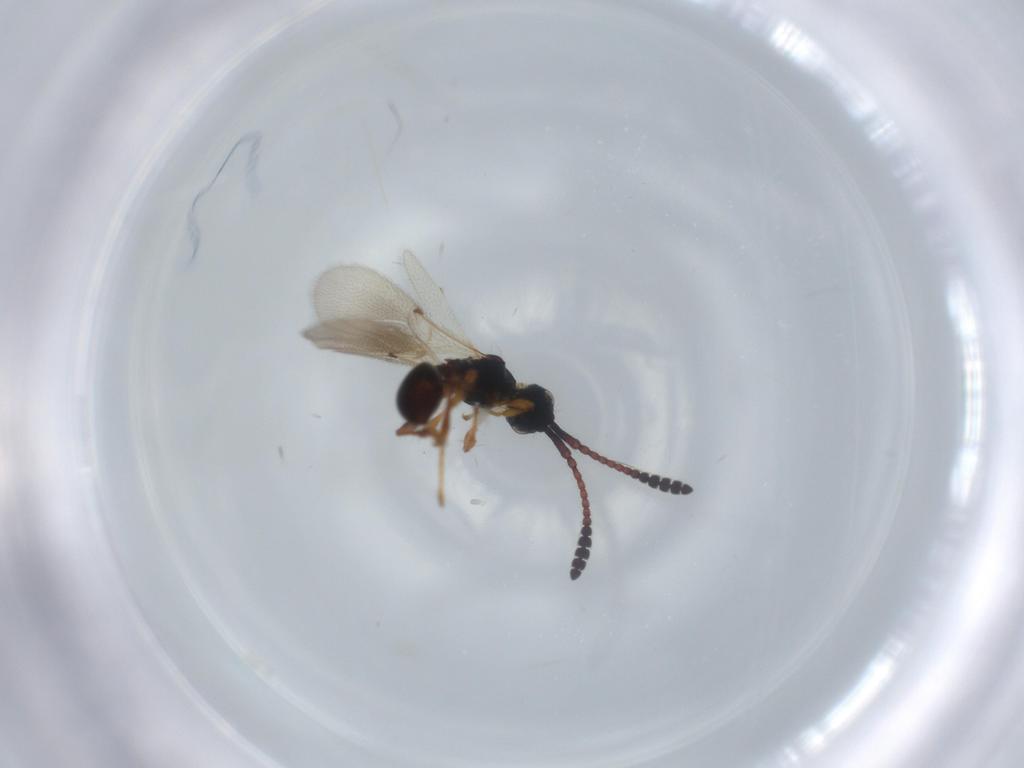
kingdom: Animalia
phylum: Arthropoda
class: Insecta
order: Hymenoptera
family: Diapriidae
